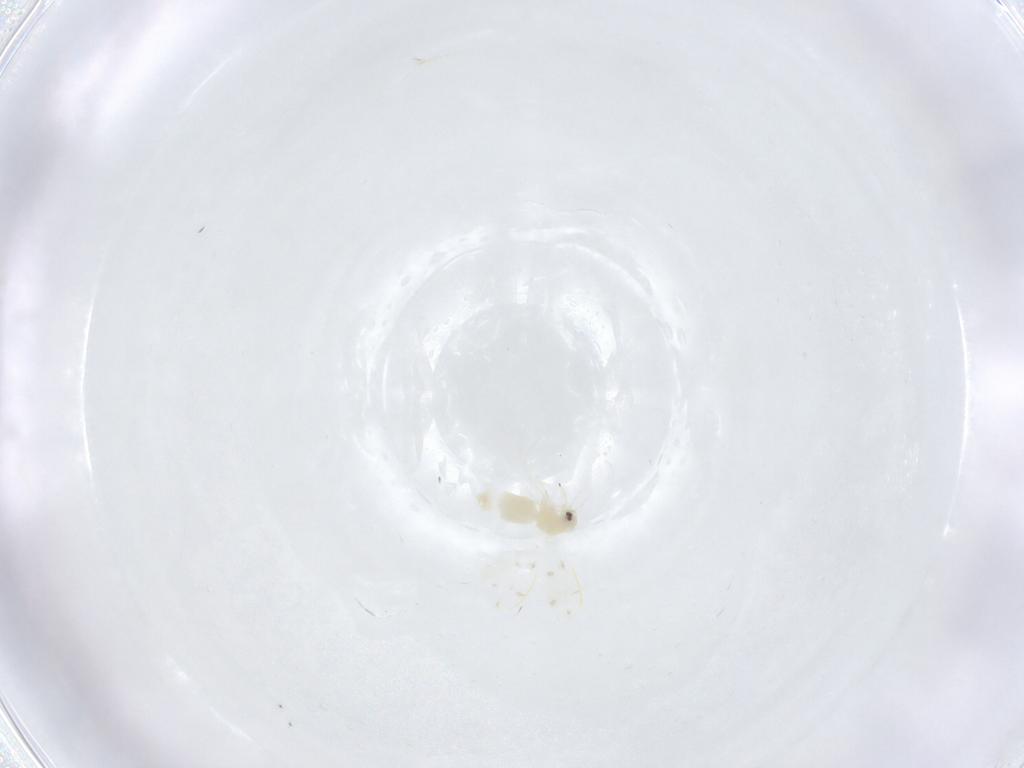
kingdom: Animalia
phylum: Arthropoda
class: Insecta
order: Hemiptera
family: Aleyrodidae
